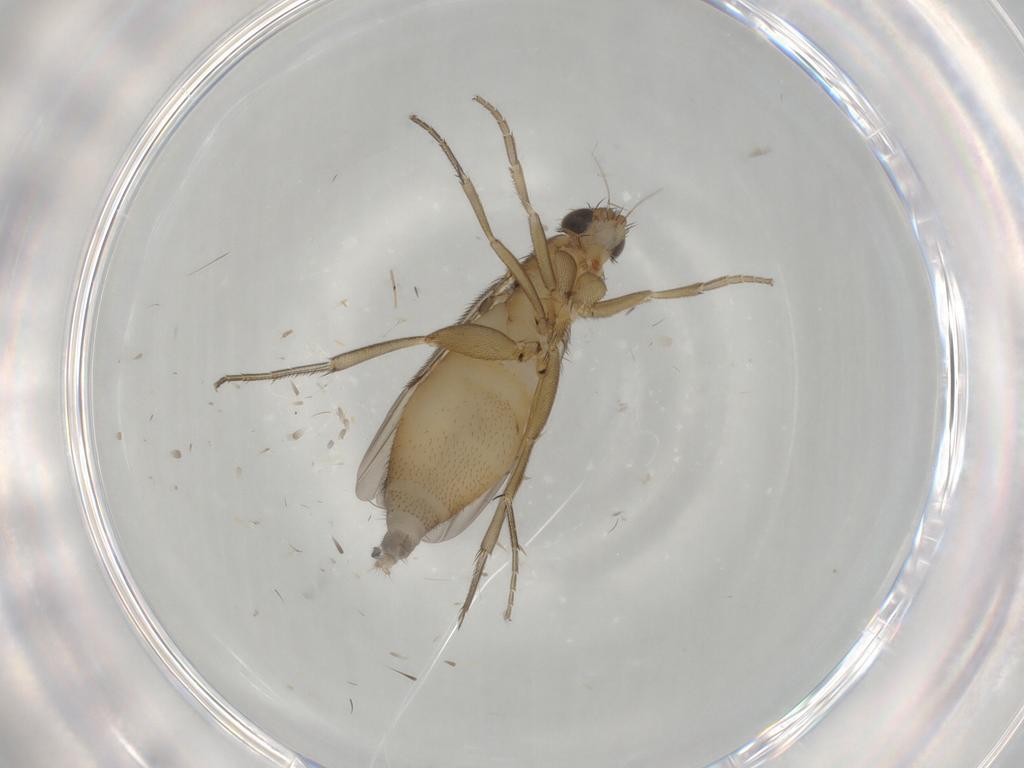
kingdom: Animalia
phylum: Arthropoda
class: Insecta
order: Diptera
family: Phoridae
